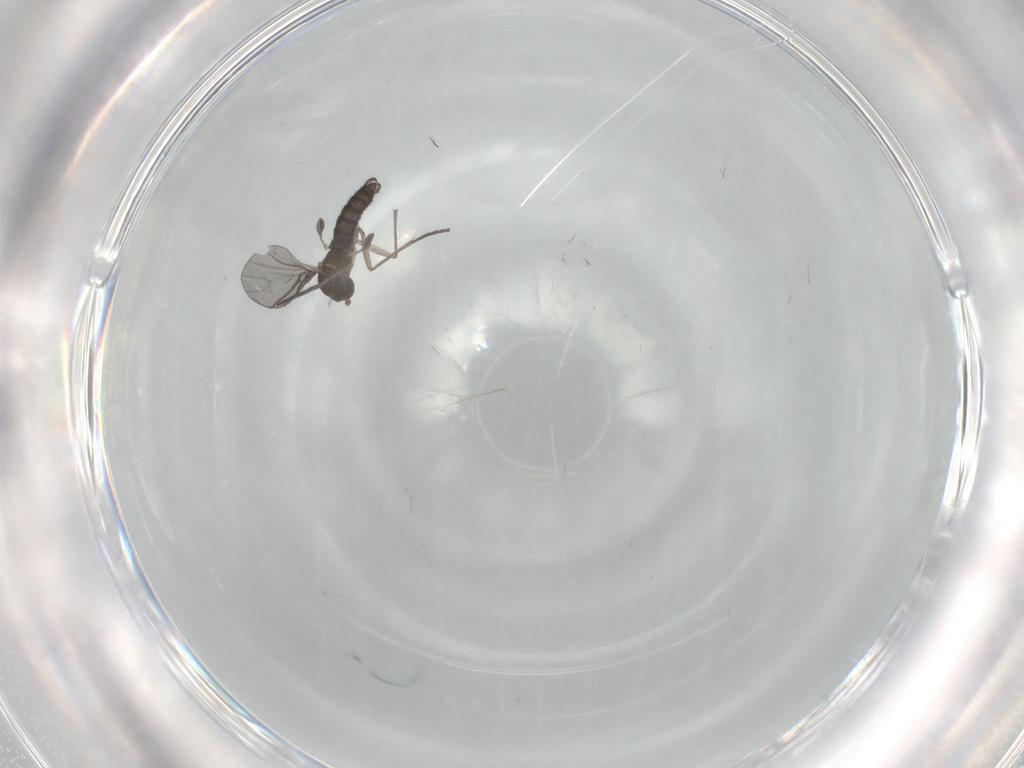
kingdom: Animalia
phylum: Arthropoda
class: Insecta
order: Diptera
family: Sciaridae
